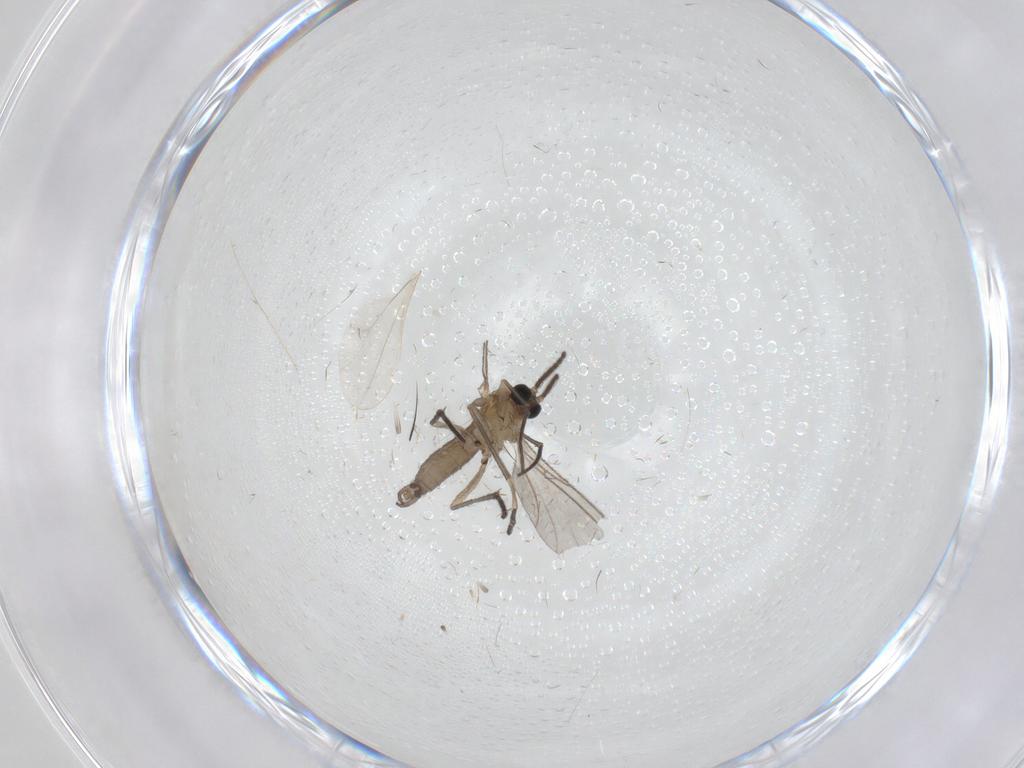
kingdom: Animalia
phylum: Arthropoda
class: Insecta
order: Diptera
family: Sciaridae
